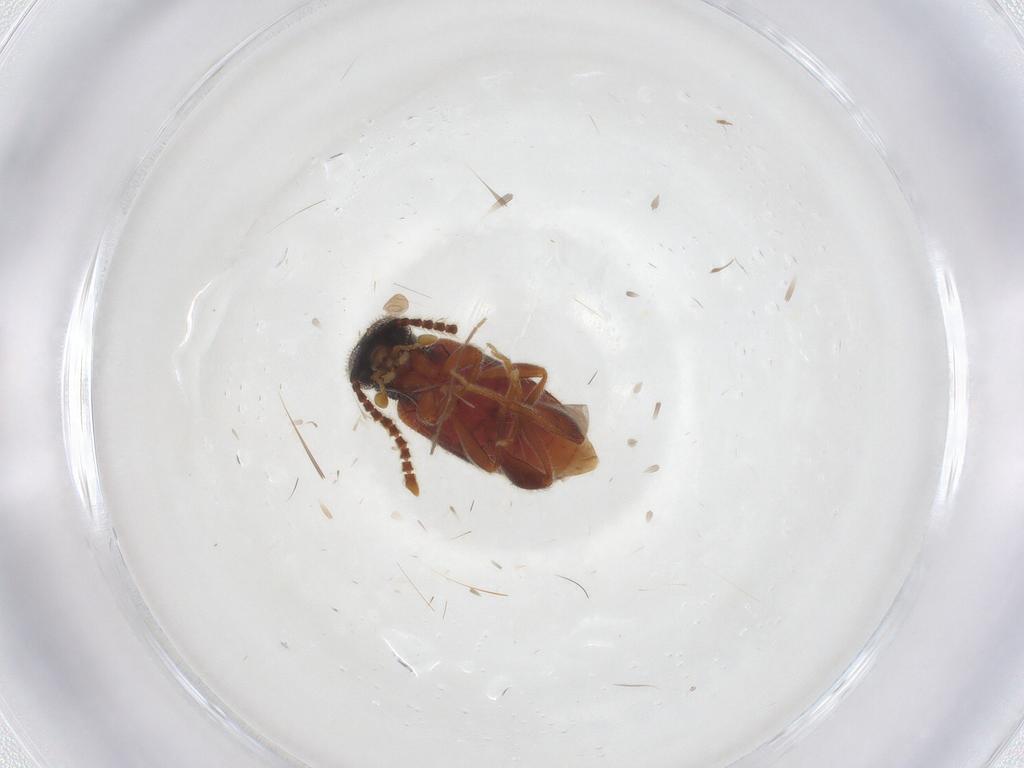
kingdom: Animalia
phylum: Arthropoda
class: Insecta
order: Coleoptera
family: Aderidae
